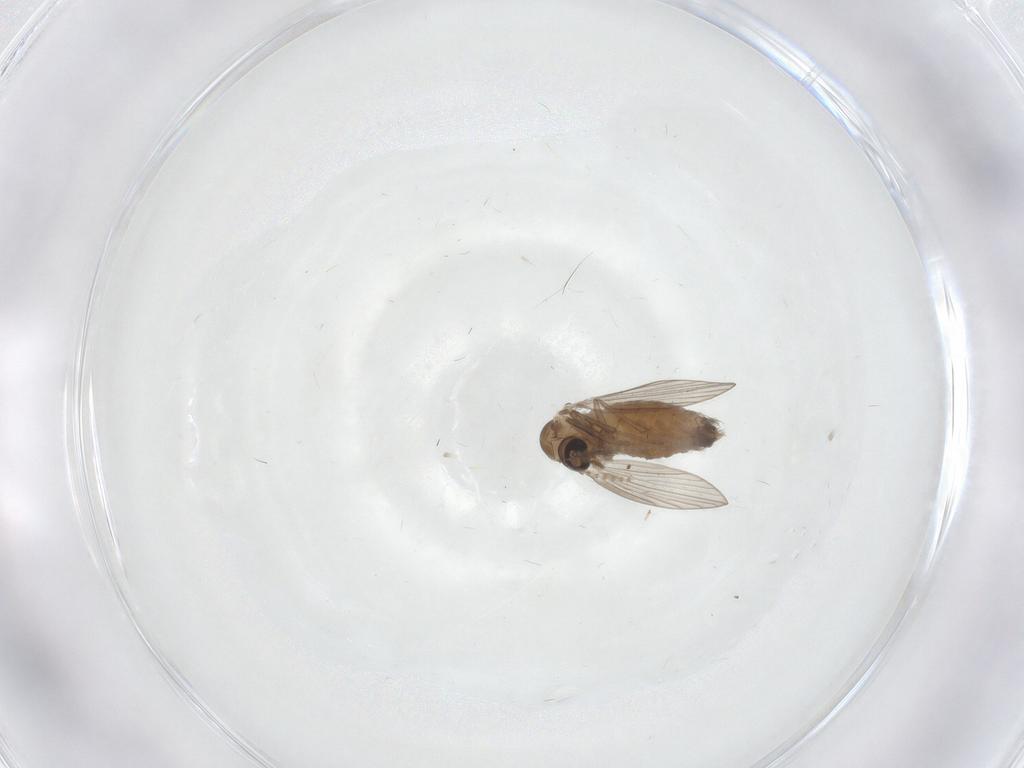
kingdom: Animalia
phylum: Arthropoda
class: Insecta
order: Diptera
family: Psychodidae
